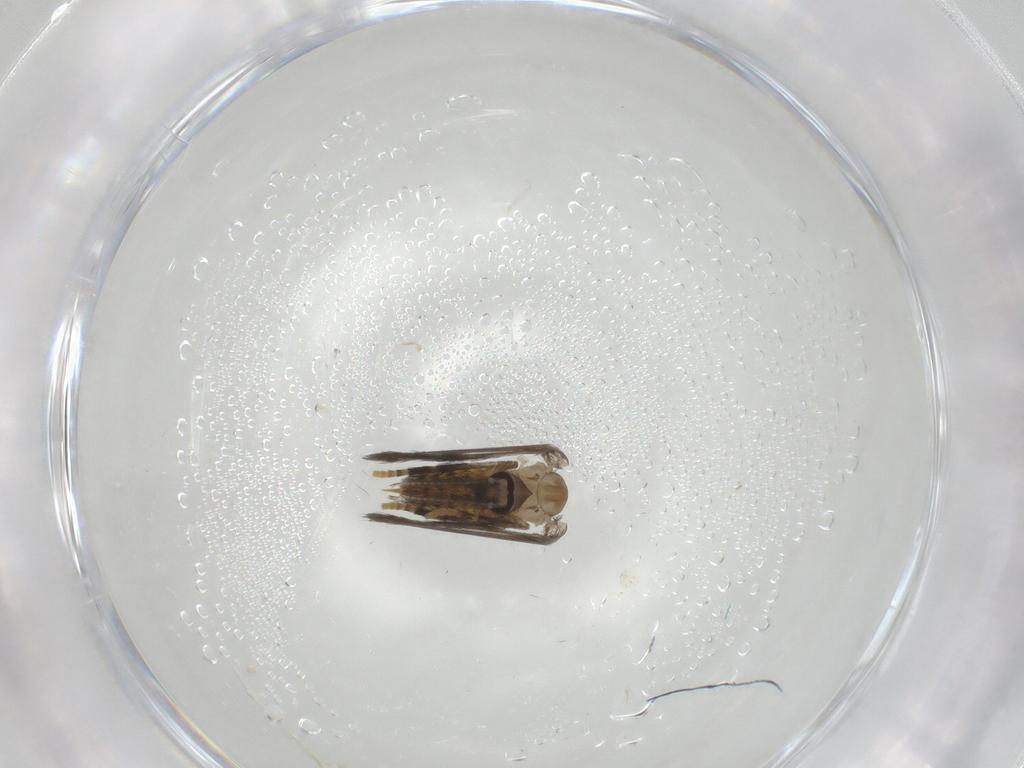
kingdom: Animalia
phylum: Arthropoda
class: Insecta
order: Diptera
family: Psychodidae
